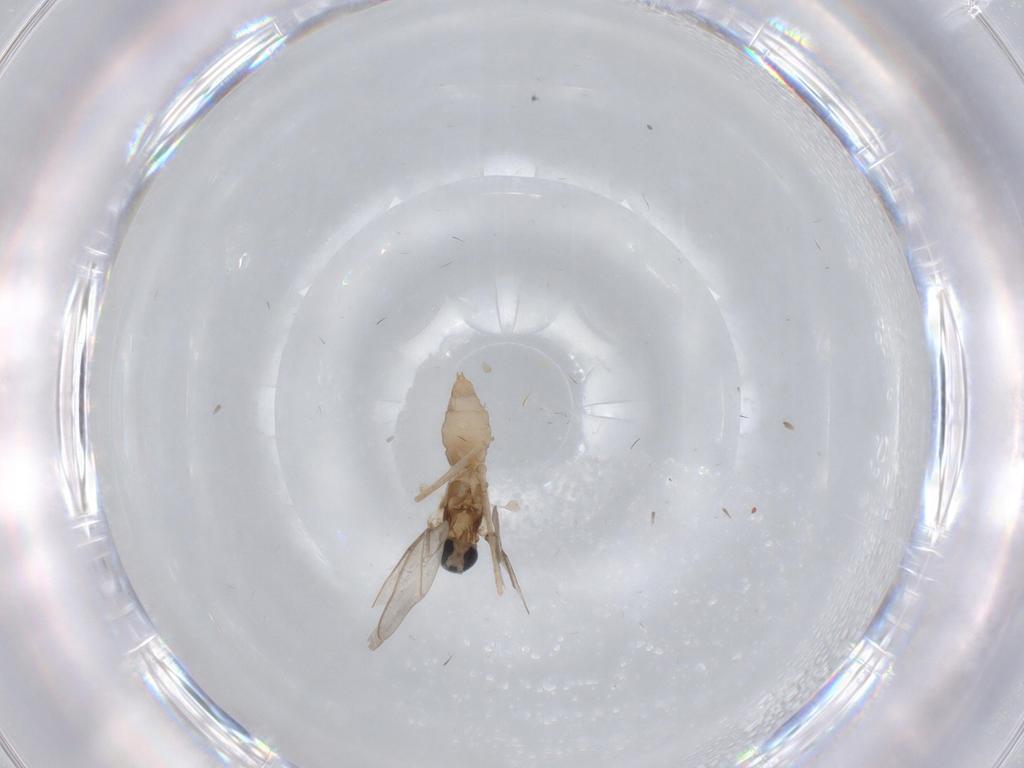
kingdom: Animalia
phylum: Arthropoda
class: Insecta
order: Diptera
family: Cecidomyiidae
